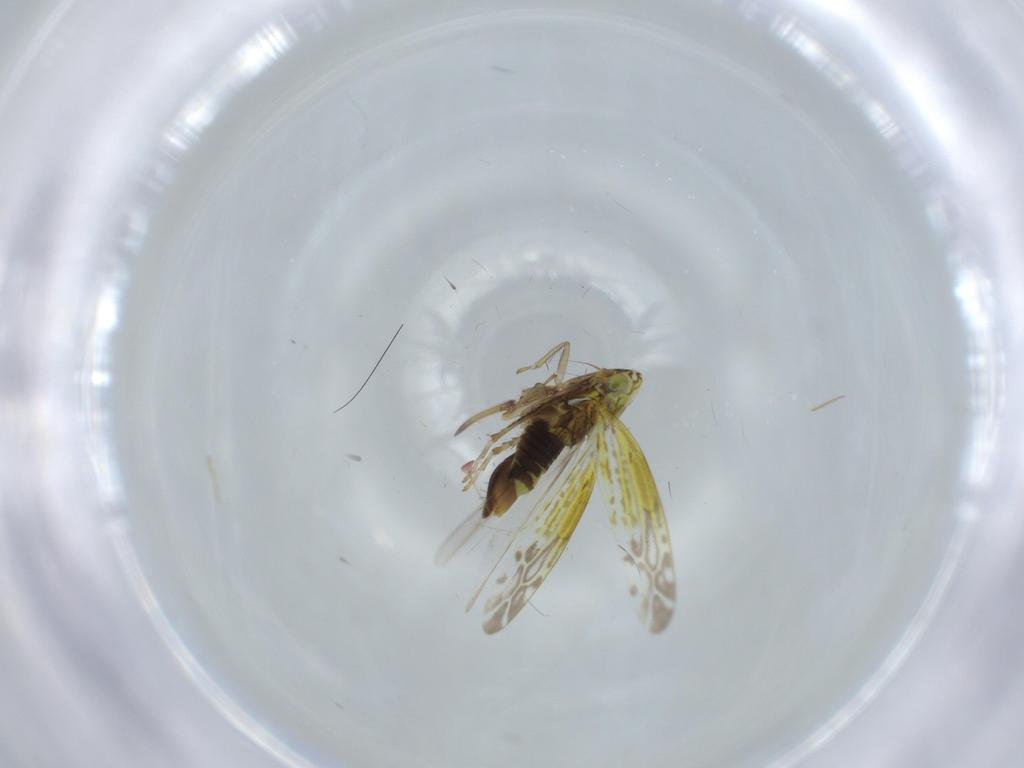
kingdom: Animalia
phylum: Arthropoda
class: Insecta
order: Hemiptera
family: Cicadellidae
